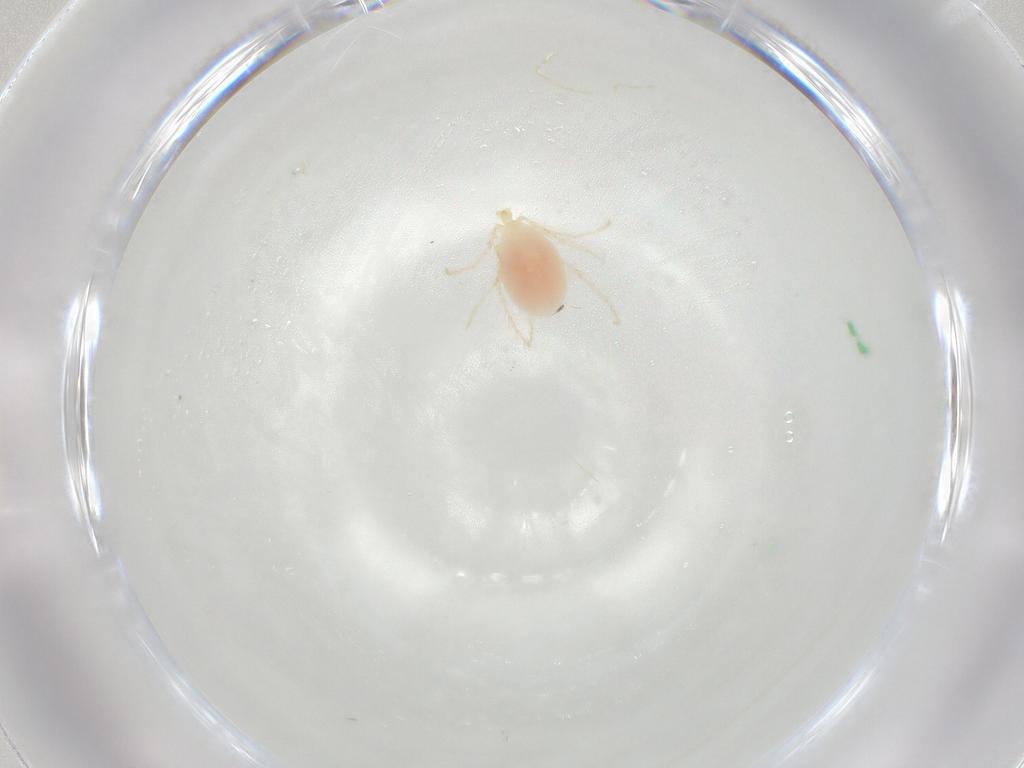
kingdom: Animalia
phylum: Arthropoda
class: Insecta
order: Hemiptera
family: Cicadellidae
